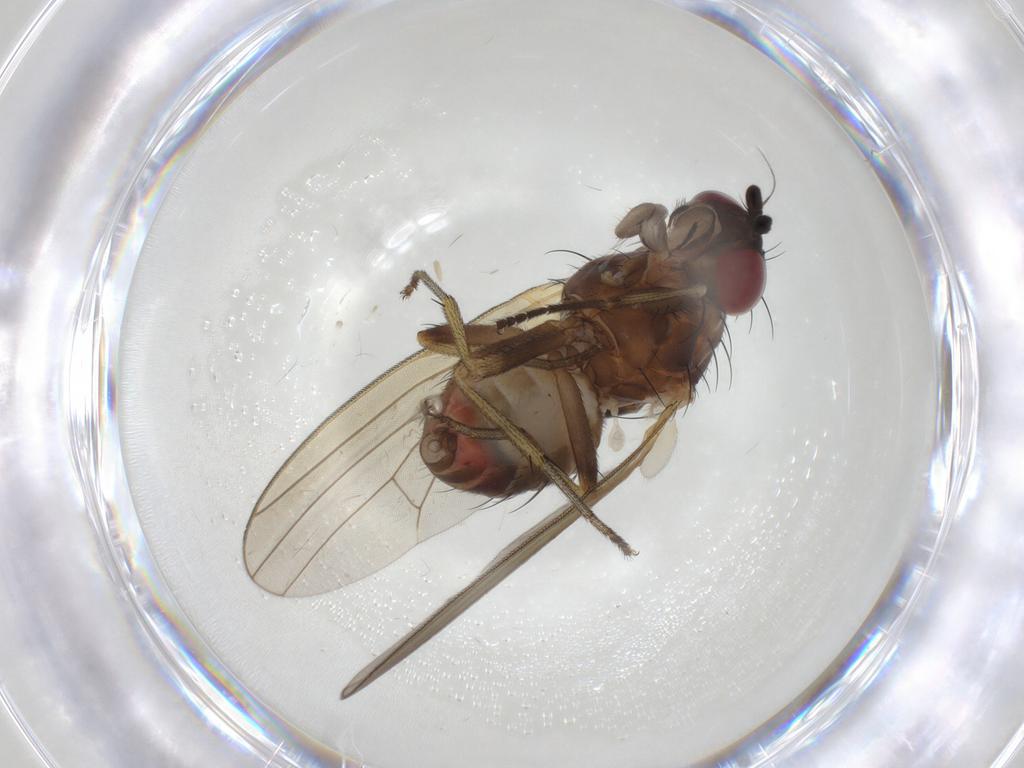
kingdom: Animalia
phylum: Arthropoda
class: Insecta
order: Diptera
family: Lauxaniidae
